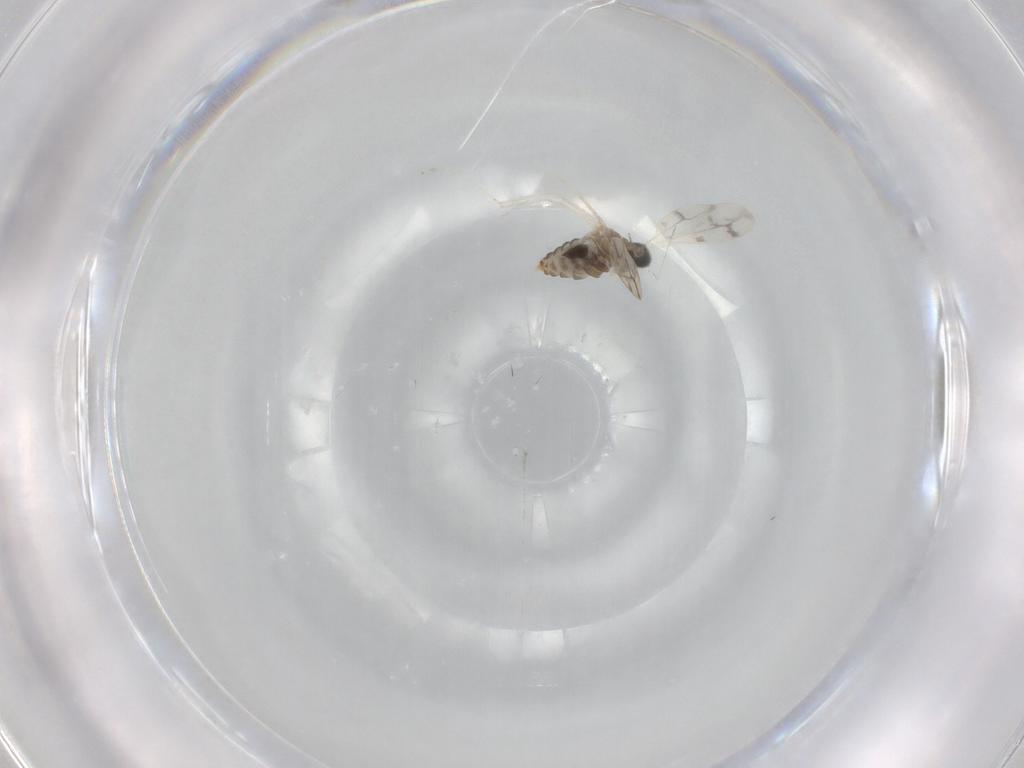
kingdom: Animalia
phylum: Arthropoda
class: Insecta
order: Diptera
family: Cecidomyiidae
